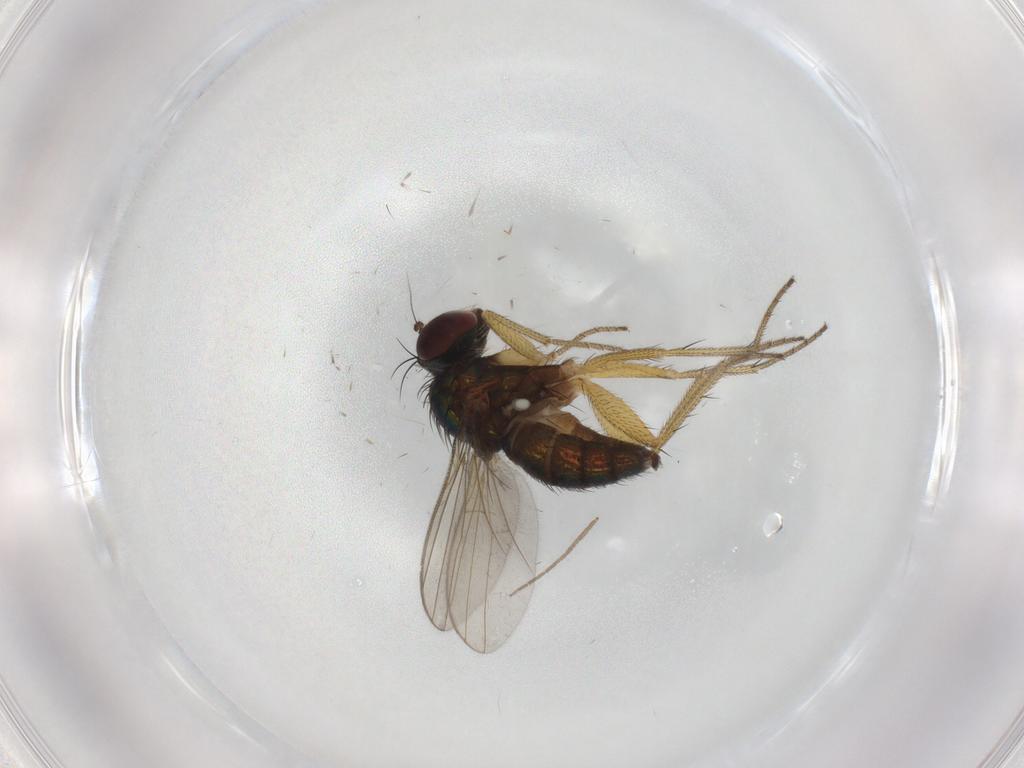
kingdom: Animalia
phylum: Arthropoda
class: Insecta
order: Diptera
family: Chironomidae
